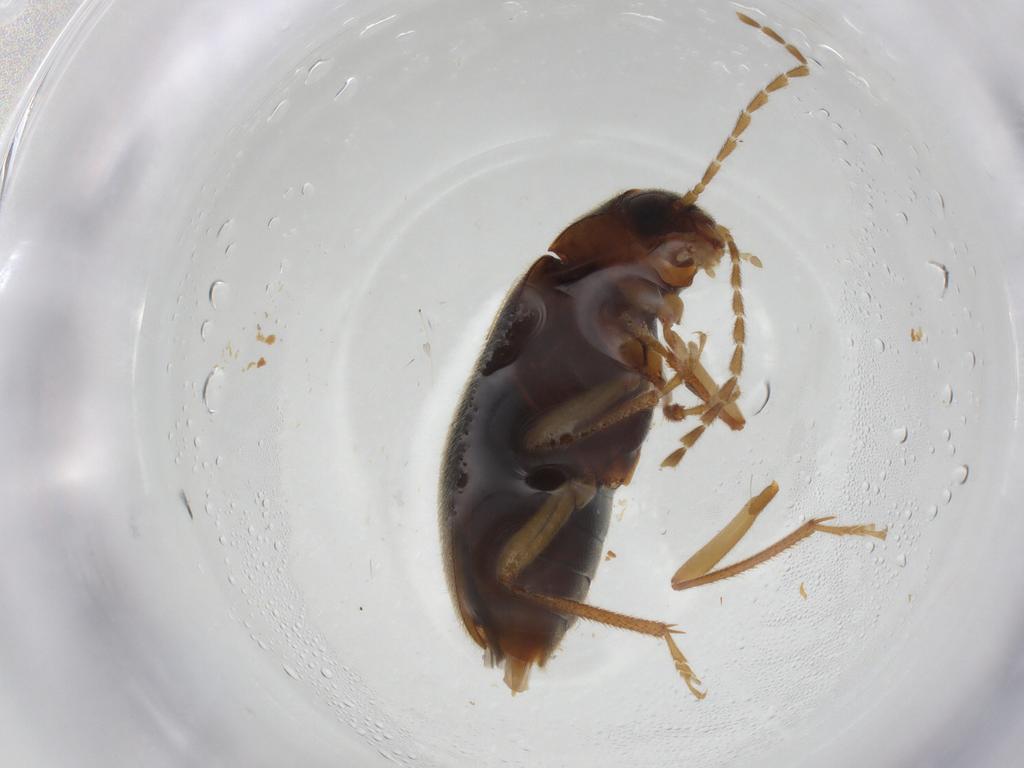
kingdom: Animalia
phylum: Arthropoda
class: Insecta
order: Coleoptera
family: Ptilodactylidae
